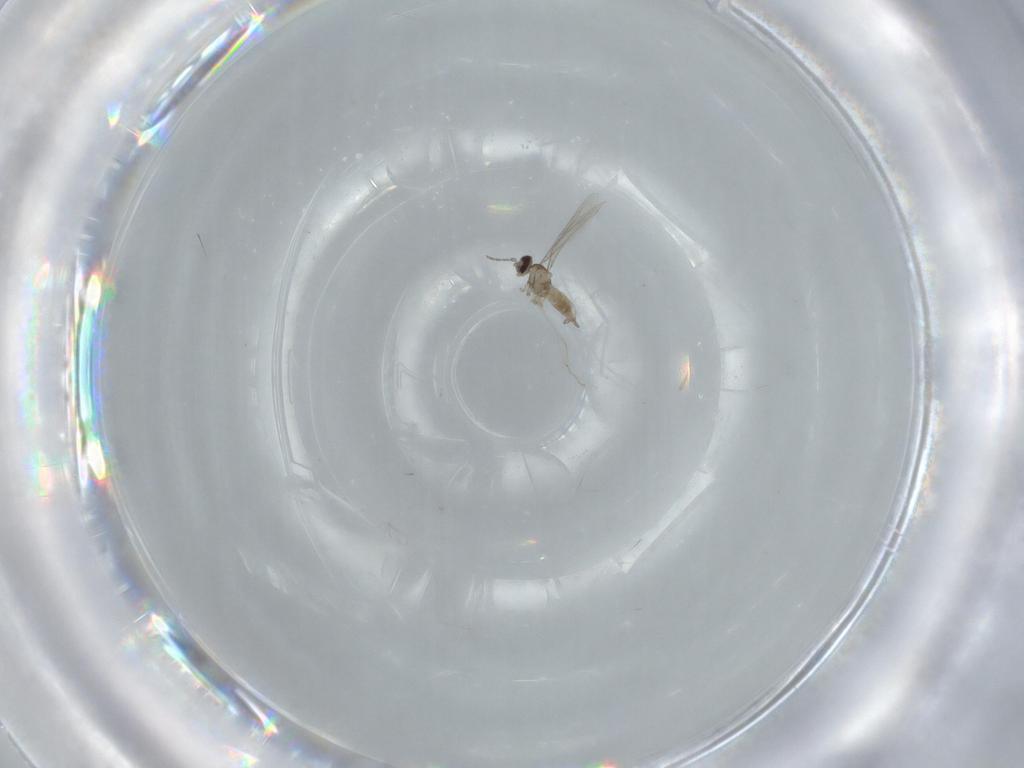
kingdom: Animalia
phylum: Arthropoda
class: Insecta
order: Diptera
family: Cecidomyiidae
